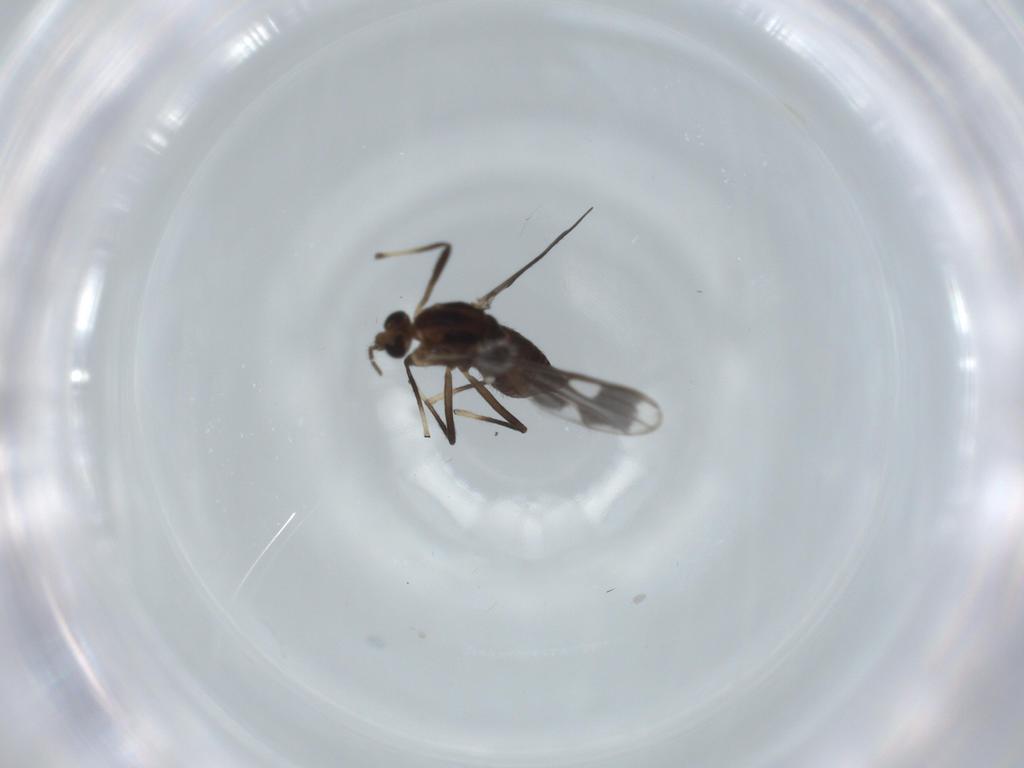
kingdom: Animalia
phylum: Arthropoda
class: Insecta
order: Diptera
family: Chironomidae
